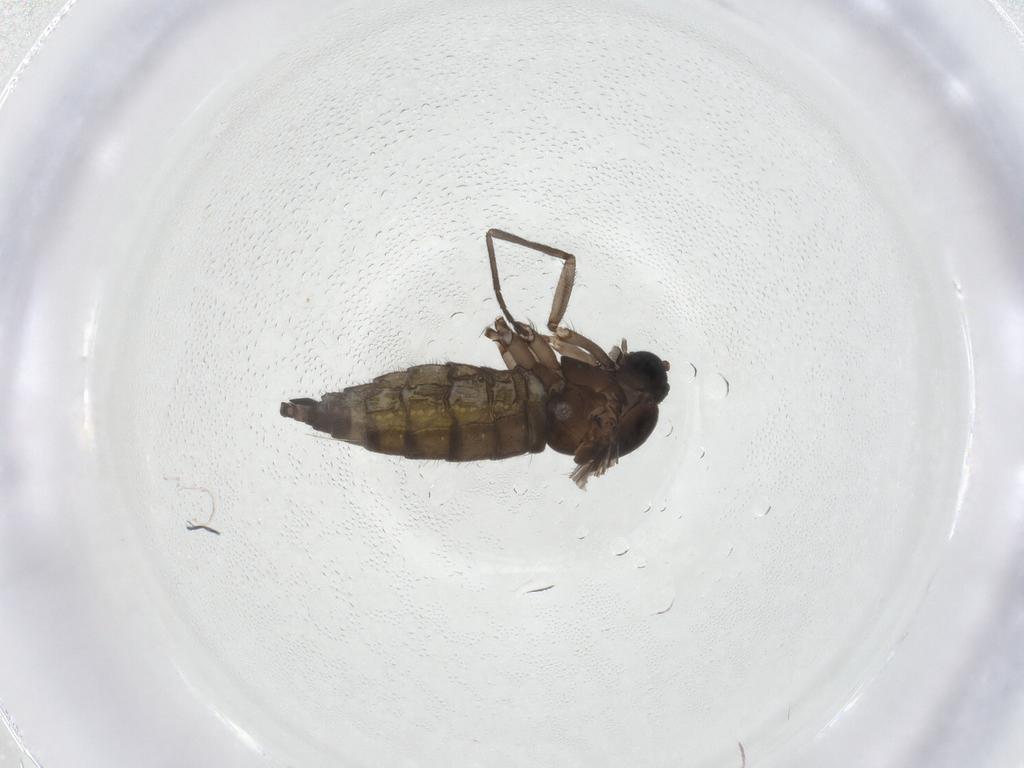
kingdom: Animalia
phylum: Arthropoda
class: Insecta
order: Diptera
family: Sciaridae
